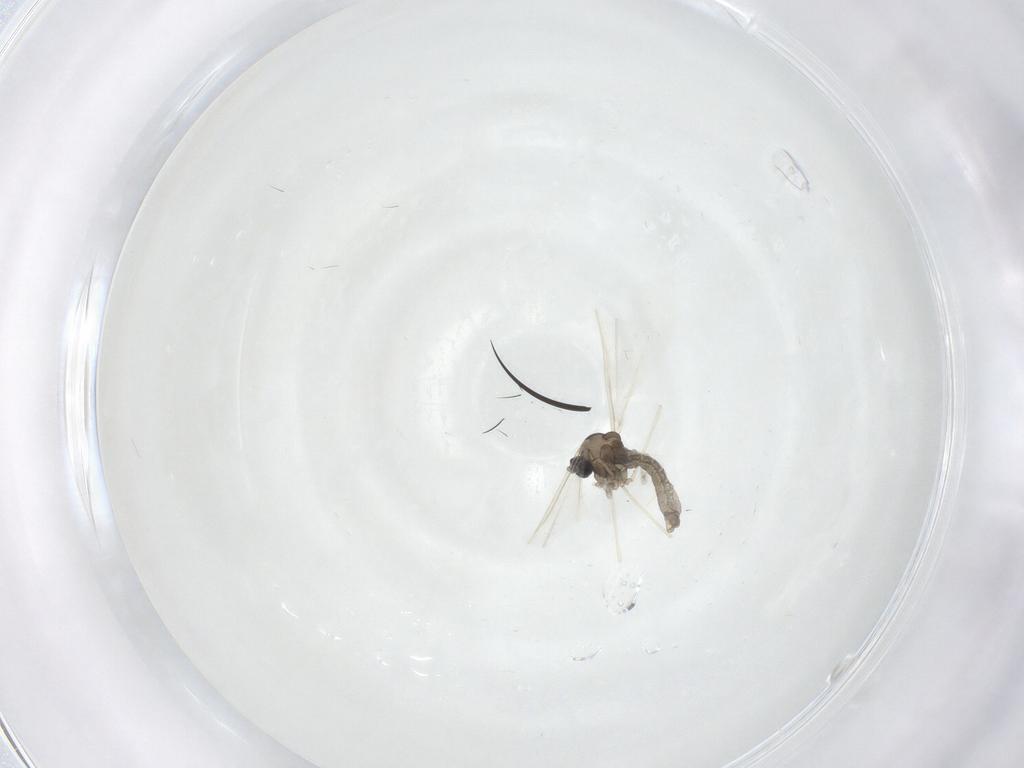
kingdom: Animalia
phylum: Arthropoda
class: Insecta
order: Diptera
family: Cecidomyiidae
